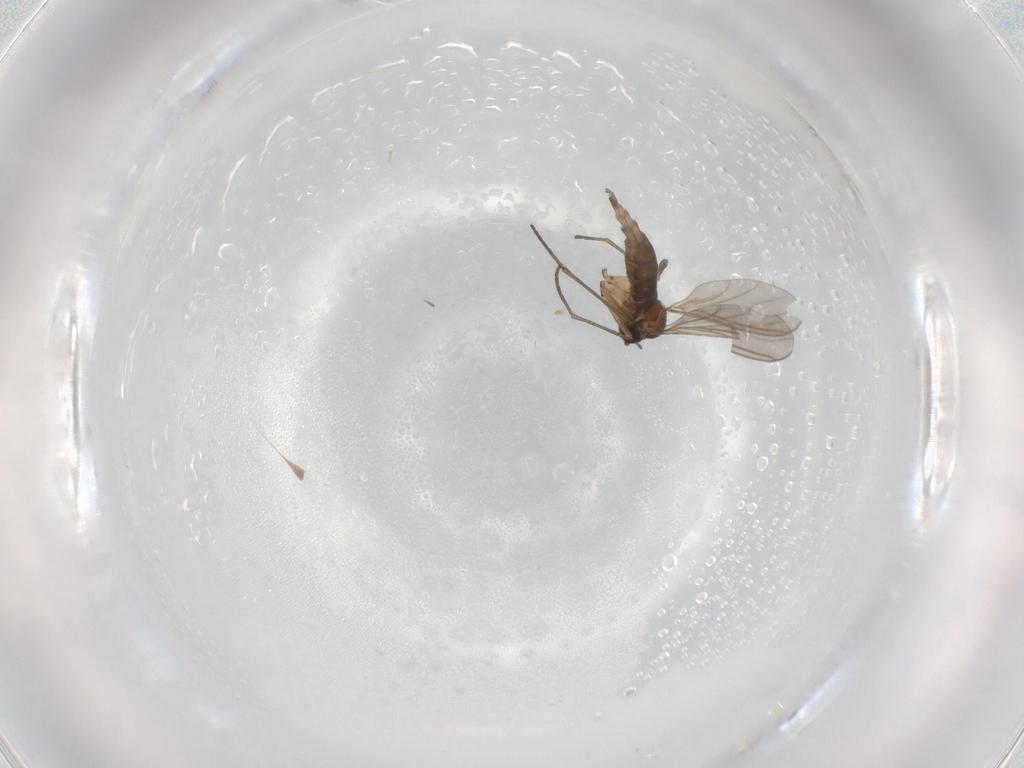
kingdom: Animalia
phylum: Arthropoda
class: Insecta
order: Diptera
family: Sciaridae
